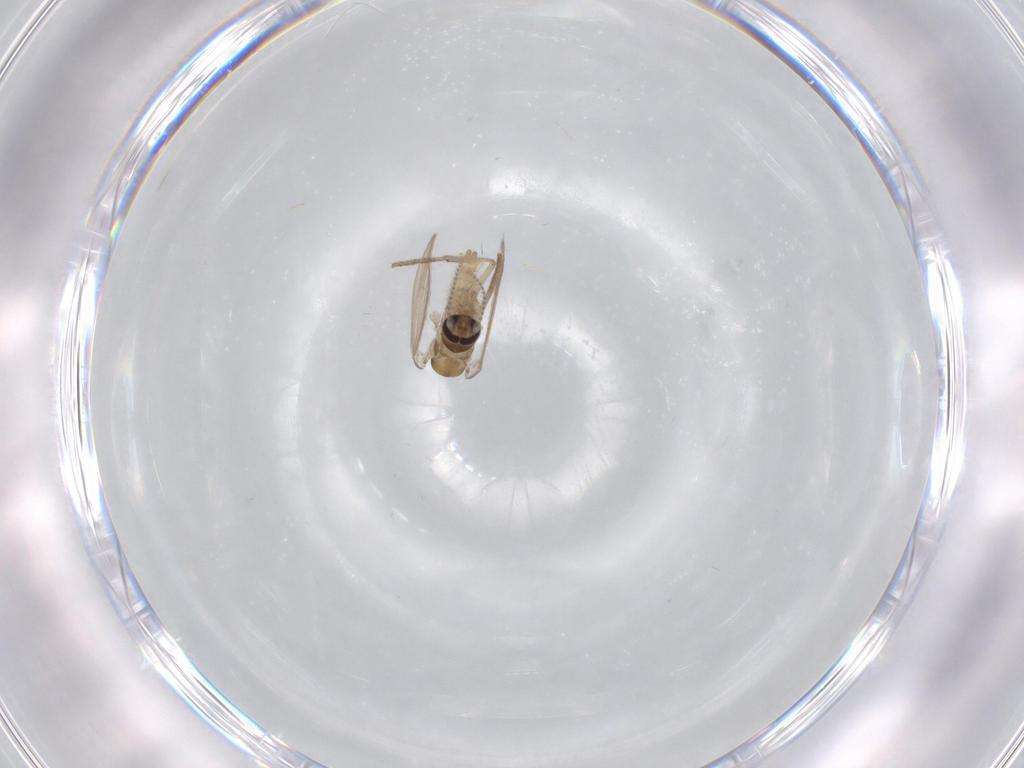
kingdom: Animalia
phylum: Arthropoda
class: Insecta
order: Diptera
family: Psychodidae
